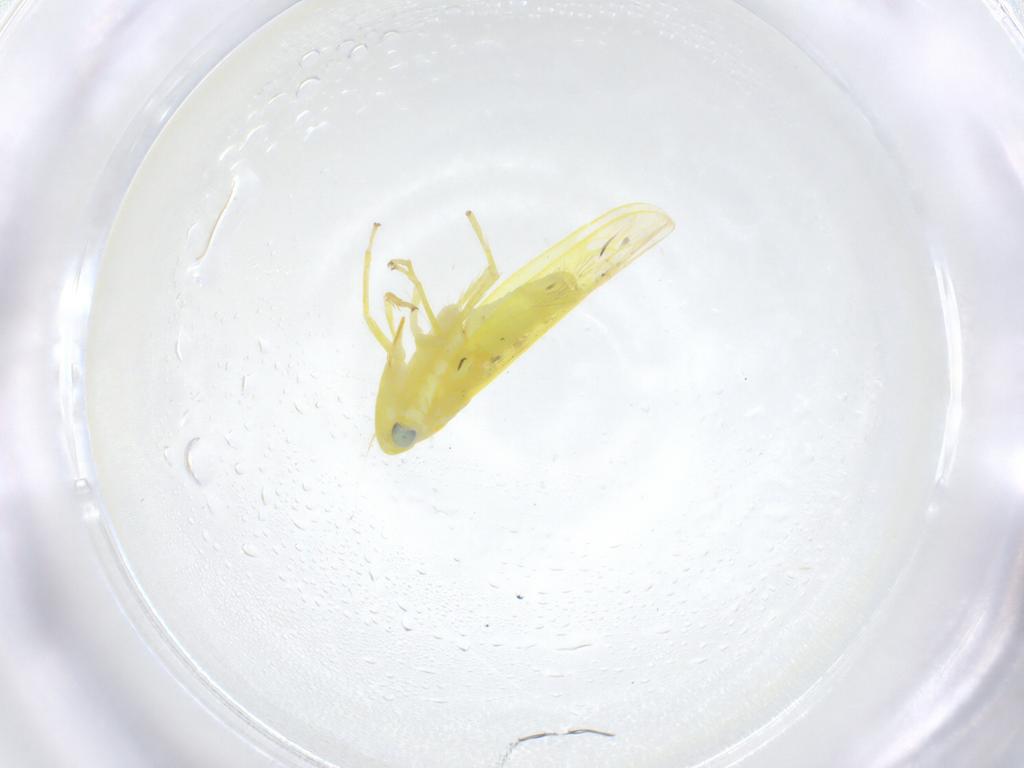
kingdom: Animalia
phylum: Arthropoda
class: Insecta
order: Hemiptera
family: Cicadellidae
